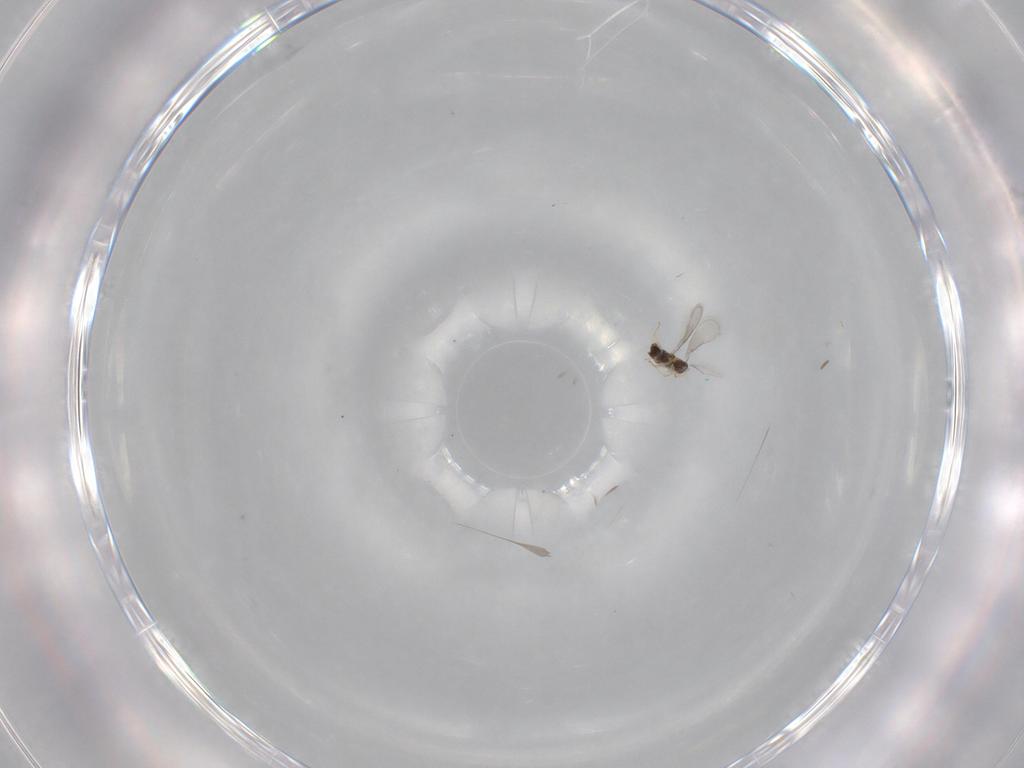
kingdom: Animalia
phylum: Arthropoda
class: Insecta
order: Hymenoptera
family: Aphelinidae
